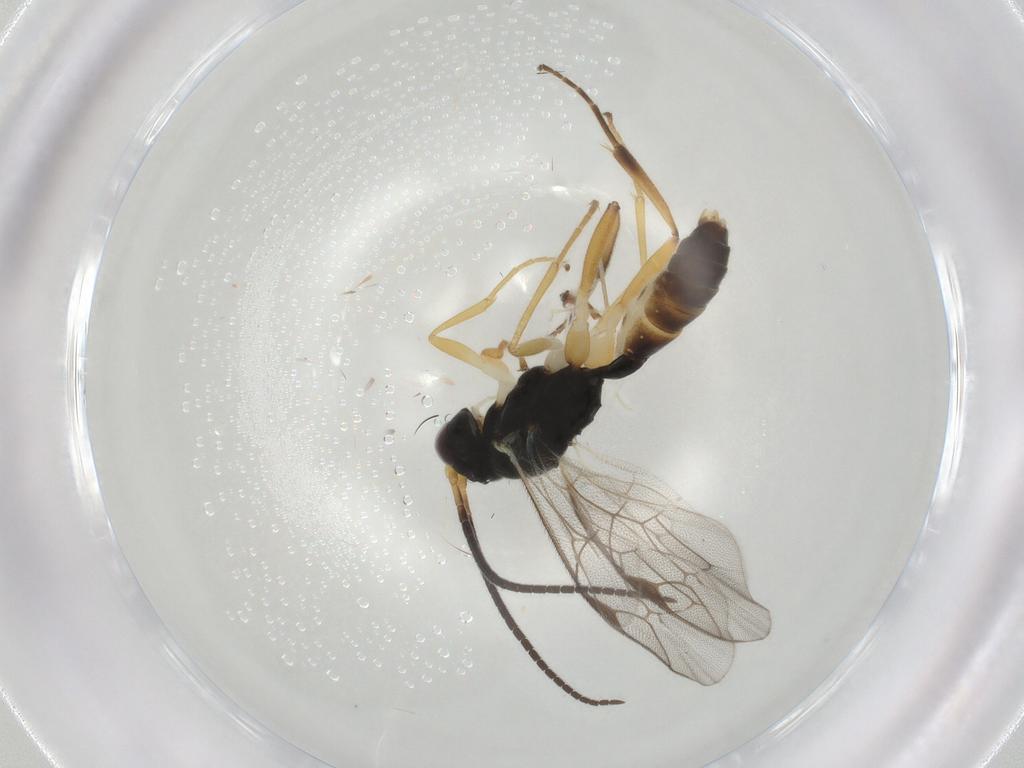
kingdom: Animalia
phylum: Arthropoda
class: Insecta
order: Hymenoptera
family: Ichneumonidae
